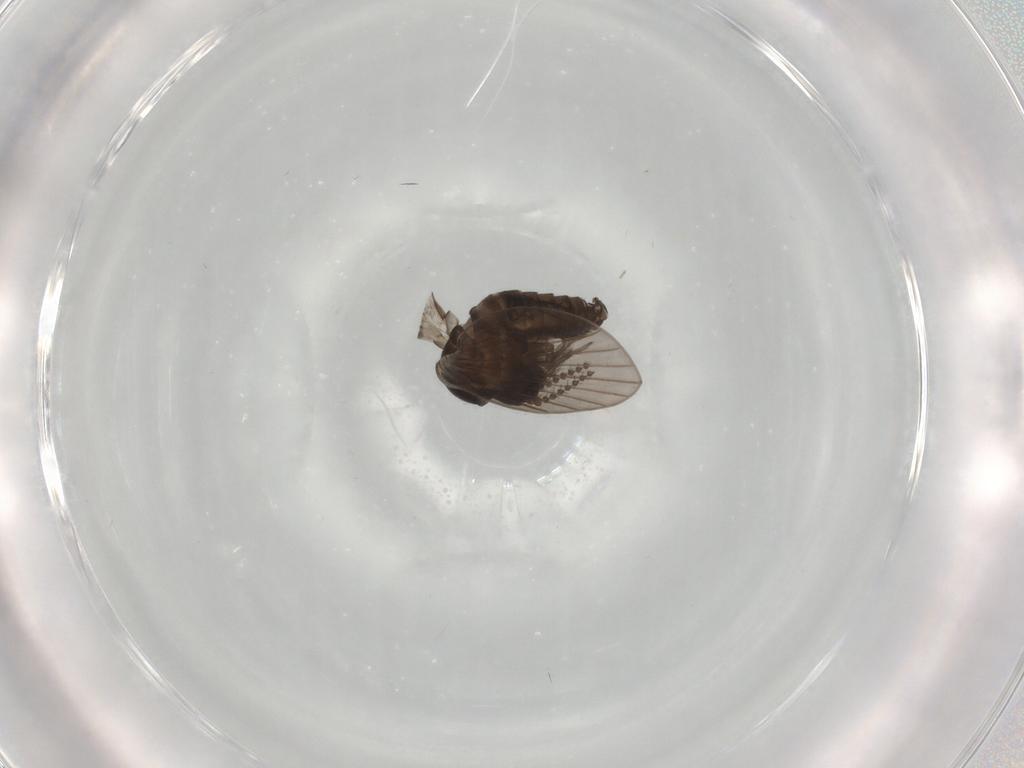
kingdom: Animalia
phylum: Arthropoda
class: Insecta
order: Diptera
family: Psychodidae
